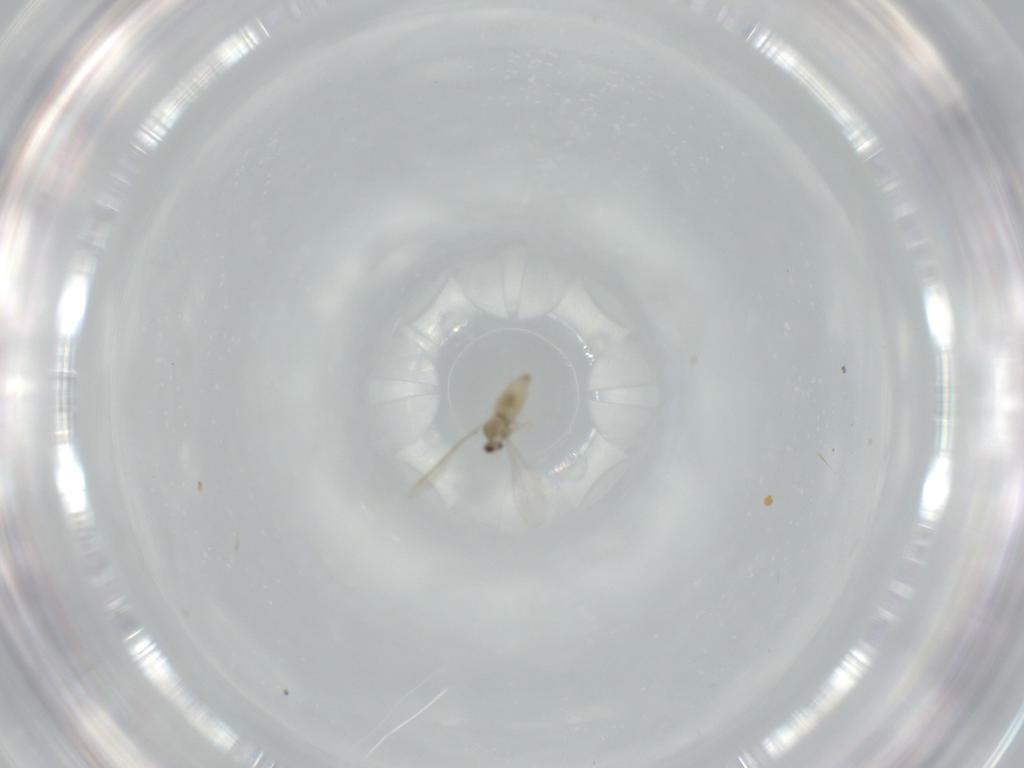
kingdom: Animalia
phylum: Arthropoda
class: Insecta
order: Diptera
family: Cecidomyiidae
